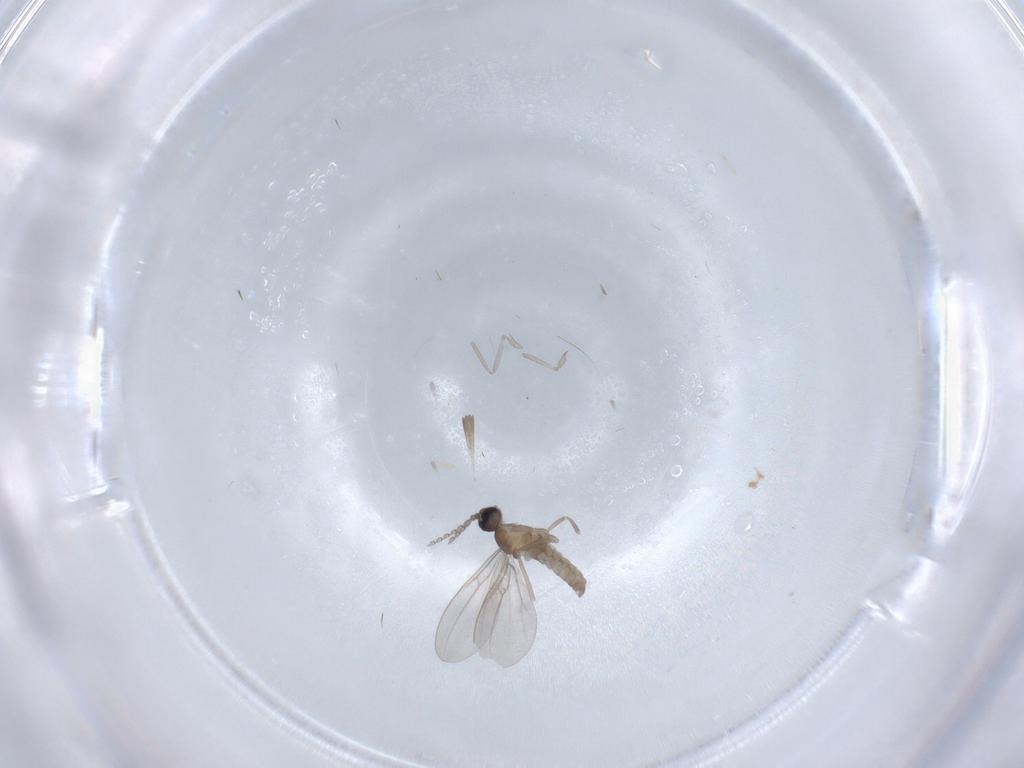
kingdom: Animalia
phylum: Arthropoda
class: Insecta
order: Diptera
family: Cecidomyiidae
